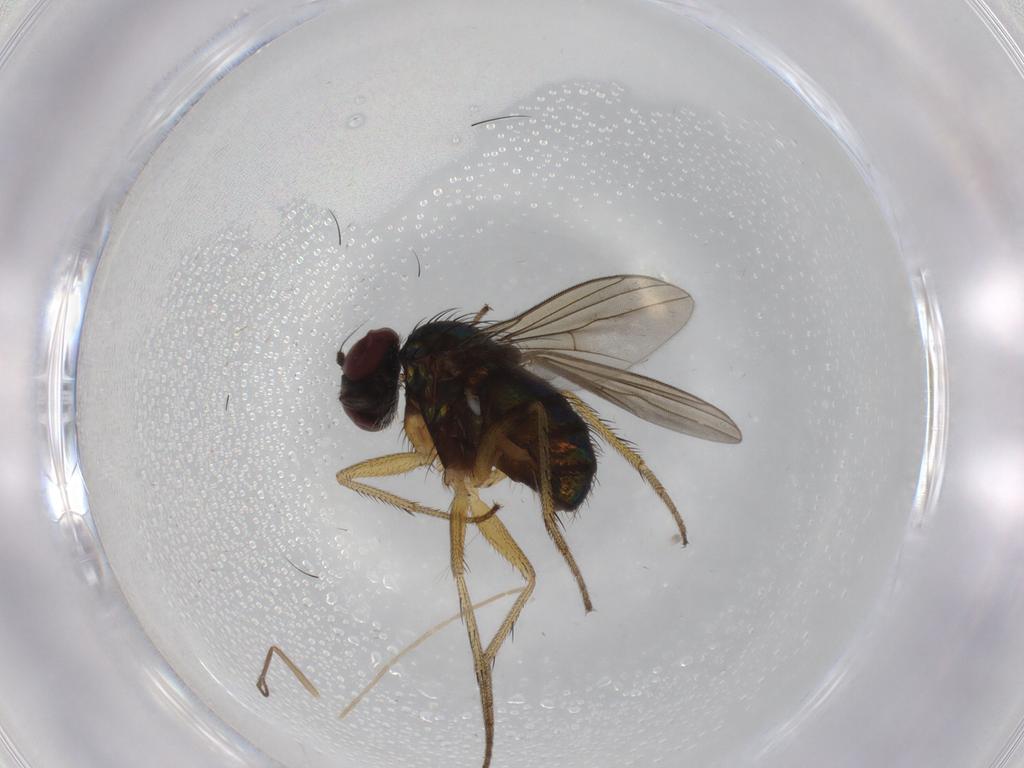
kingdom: Animalia
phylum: Arthropoda
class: Insecta
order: Diptera
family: Dolichopodidae
